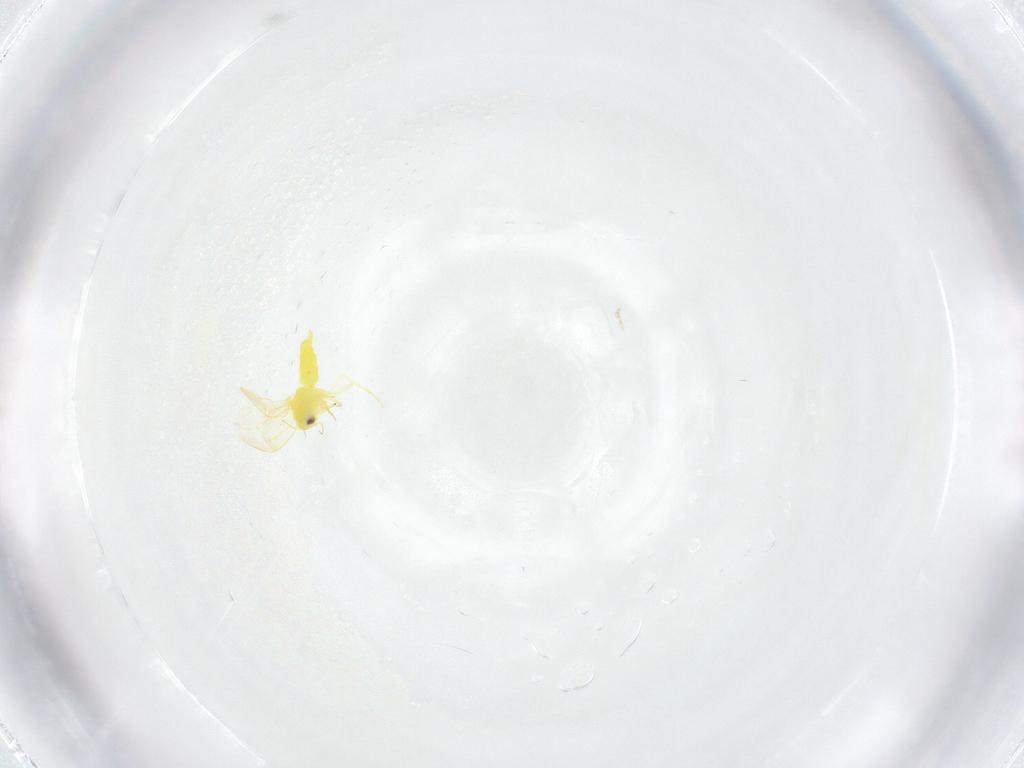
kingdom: Animalia
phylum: Arthropoda
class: Insecta
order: Hemiptera
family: Aleyrodidae
